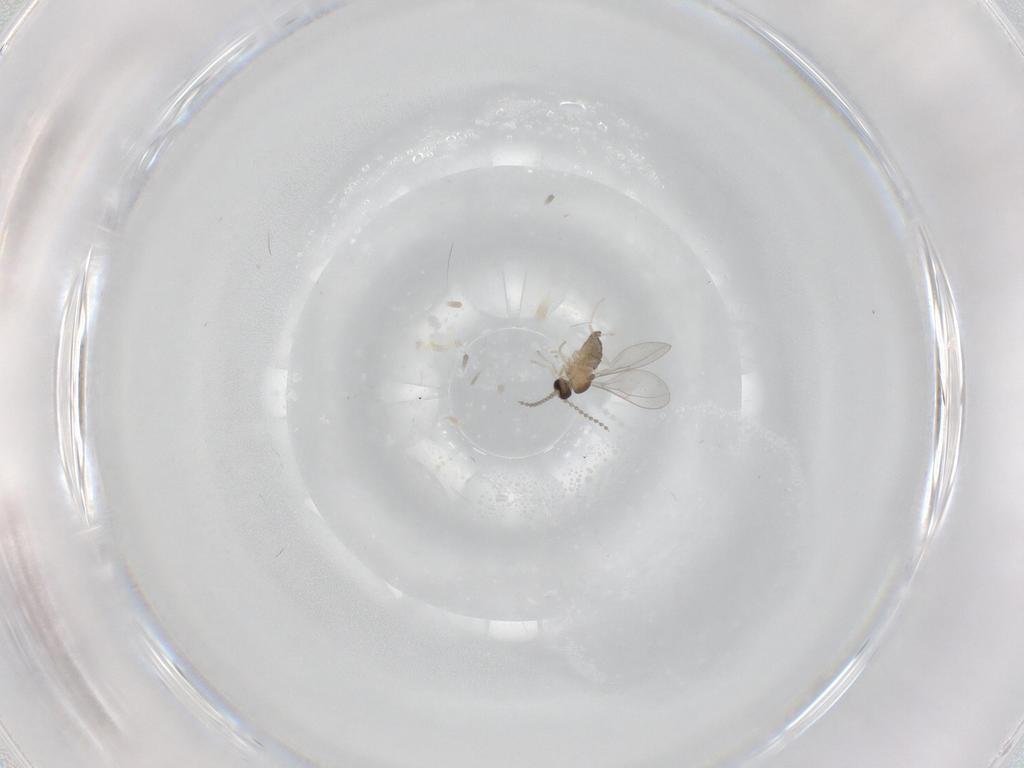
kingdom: Animalia
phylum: Arthropoda
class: Insecta
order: Diptera
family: Cecidomyiidae
